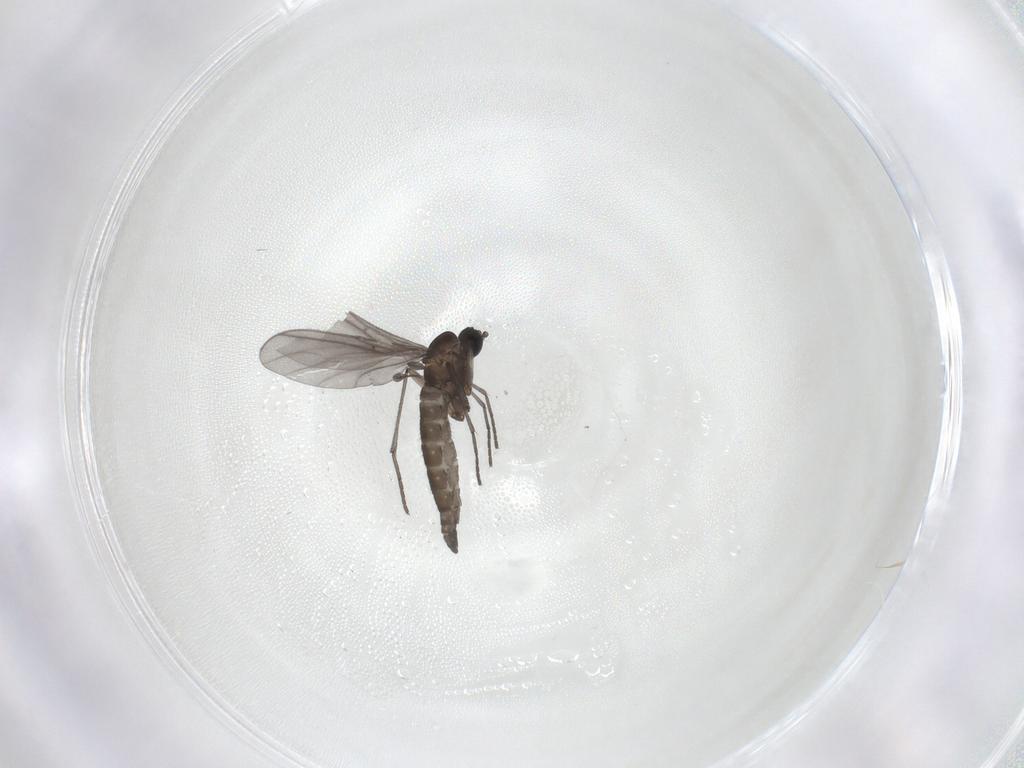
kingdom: Animalia
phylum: Arthropoda
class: Insecta
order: Diptera
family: Sciaridae
